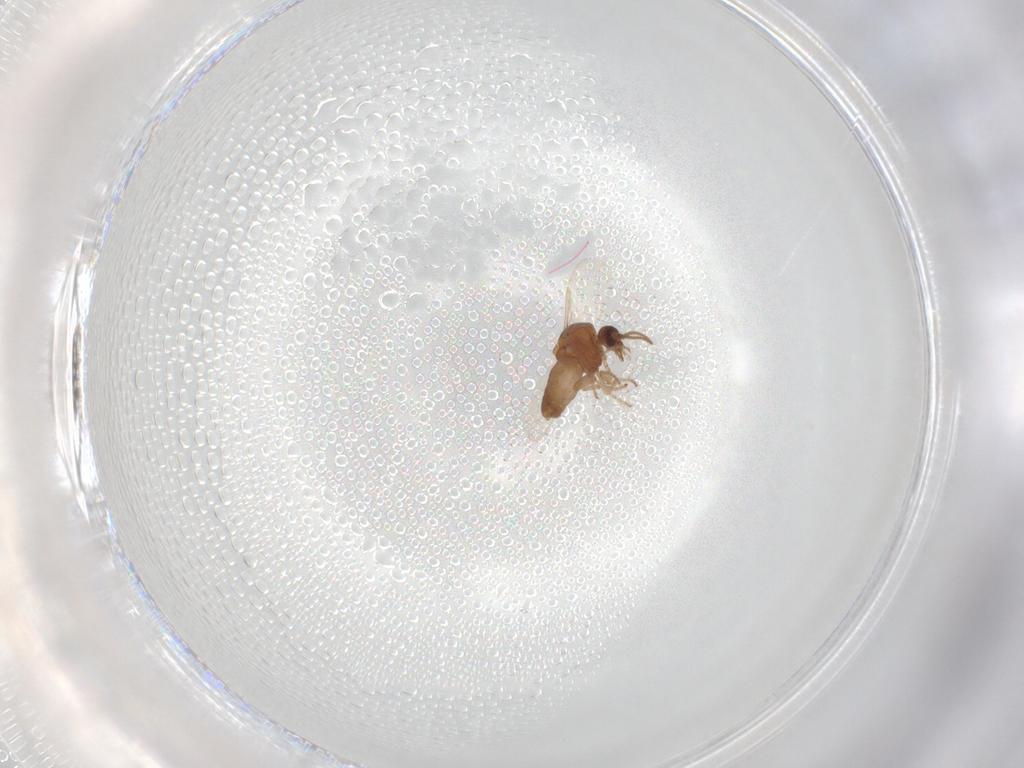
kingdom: Animalia
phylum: Arthropoda
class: Insecta
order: Diptera
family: Ceratopogonidae
